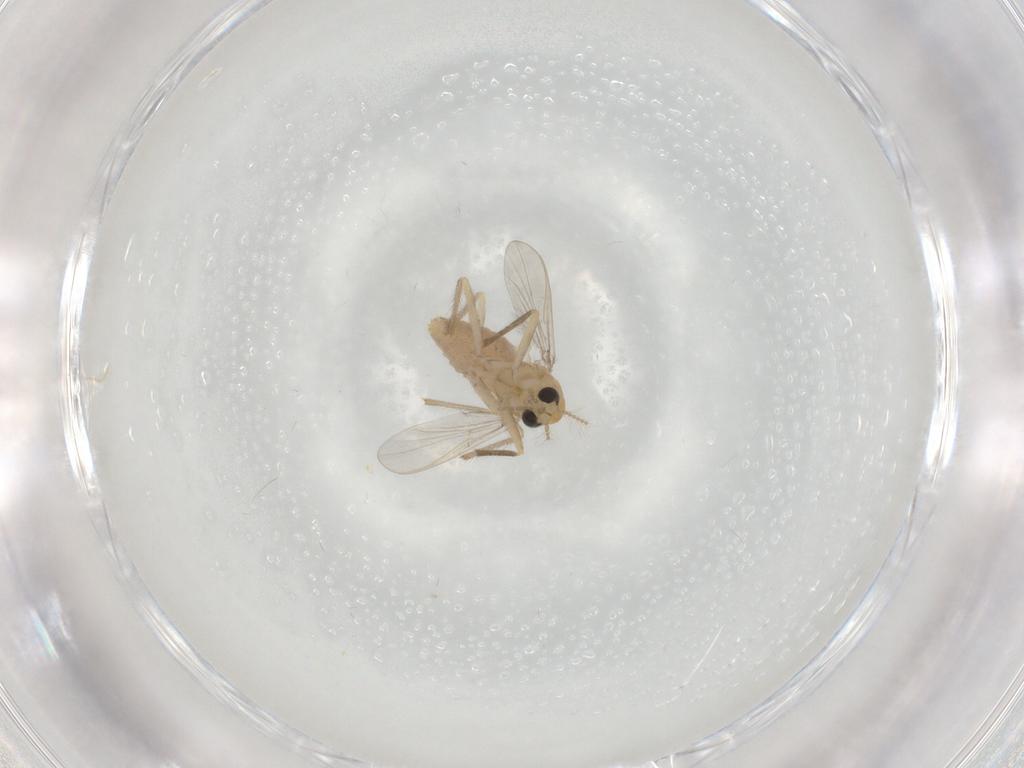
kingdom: Animalia
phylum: Arthropoda
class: Insecta
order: Diptera
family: Chironomidae
